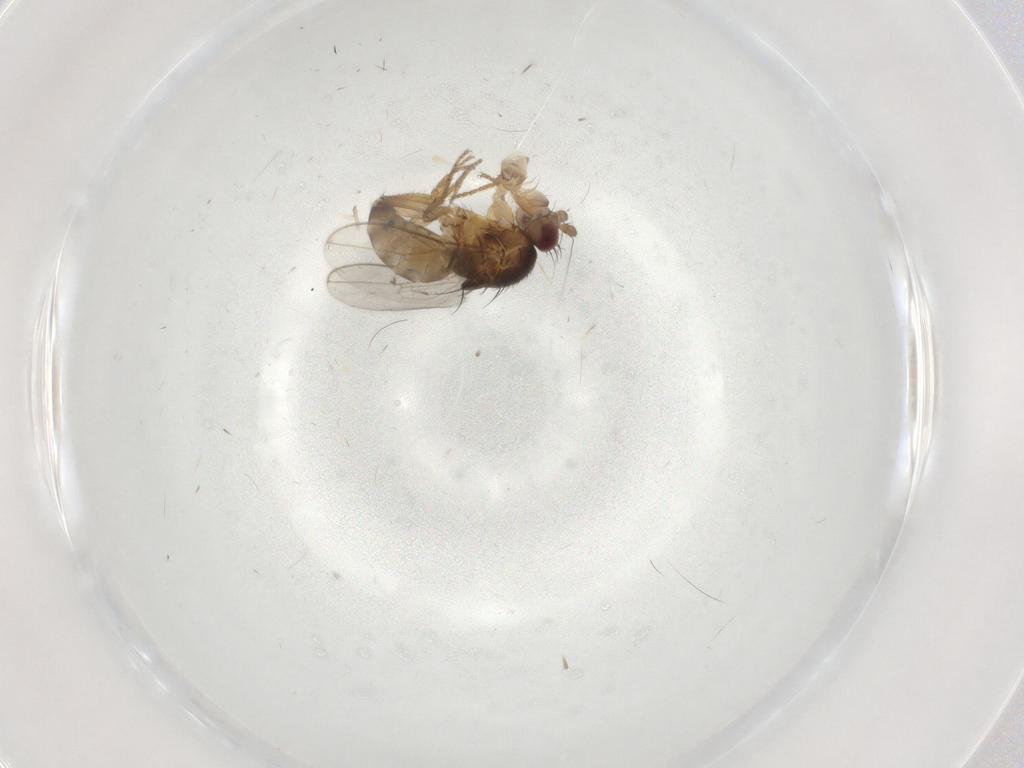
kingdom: Animalia
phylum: Arthropoda
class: Insecta
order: Diptera
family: Sphaeroceridae
